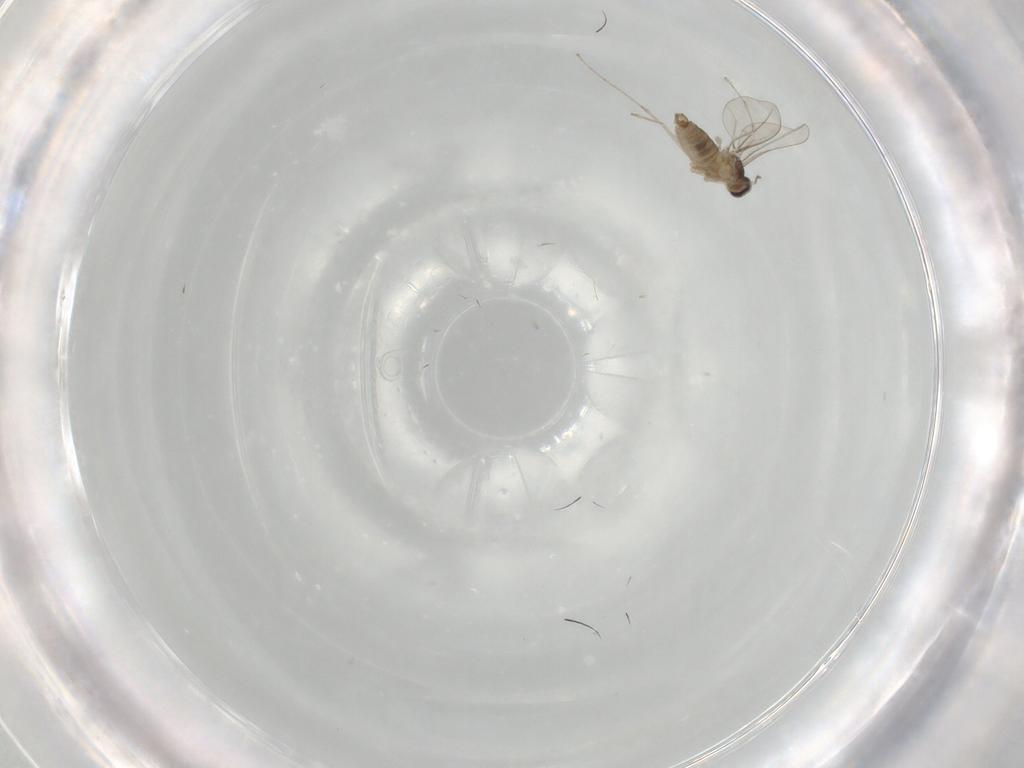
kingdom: Animalia
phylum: Arthropoda
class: Insecta
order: Diptera
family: Cecidomyiidae
